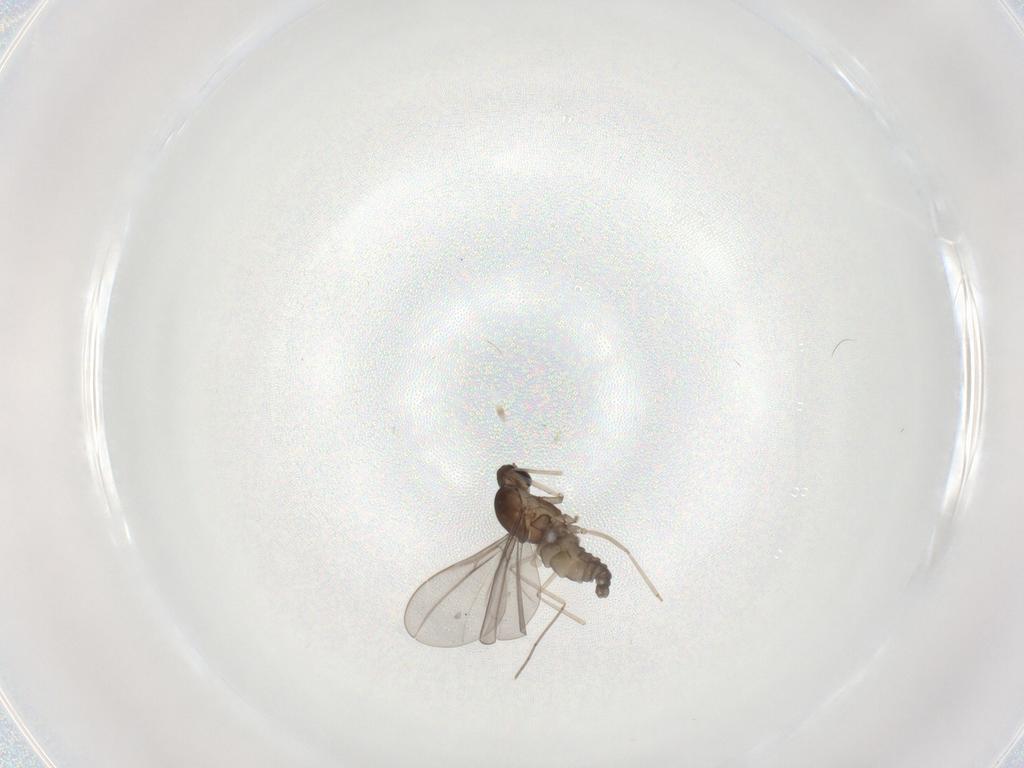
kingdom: Animalia
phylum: Arthropoda
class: Insecta
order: Diptera
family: Cecidomyiidae
